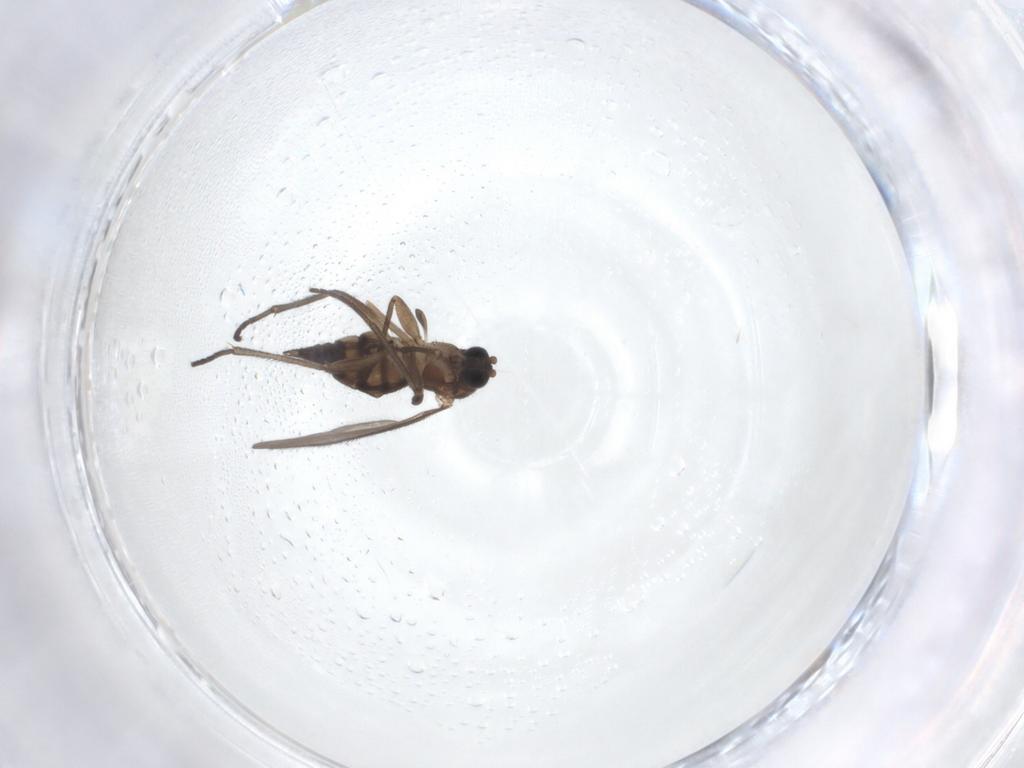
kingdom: Animalia
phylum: Arthropoda
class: Insecta
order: Diptera
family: Sciaridae
